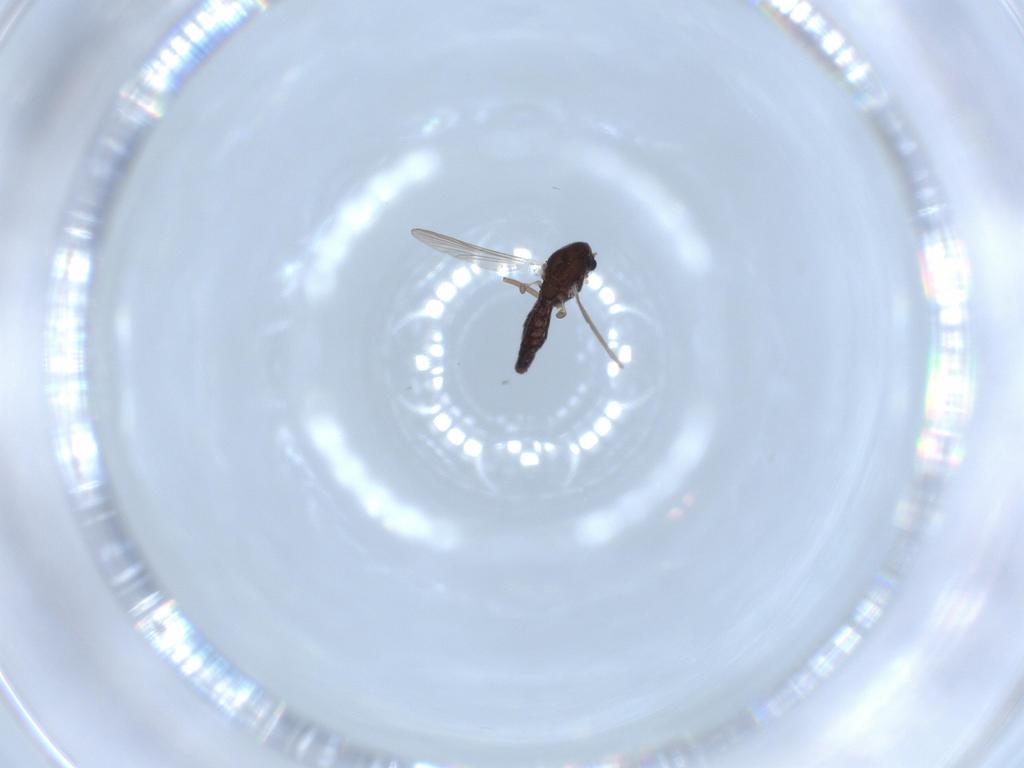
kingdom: Animalia
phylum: Arthropoda
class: Insecta
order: Diptera
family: Chironomidae
